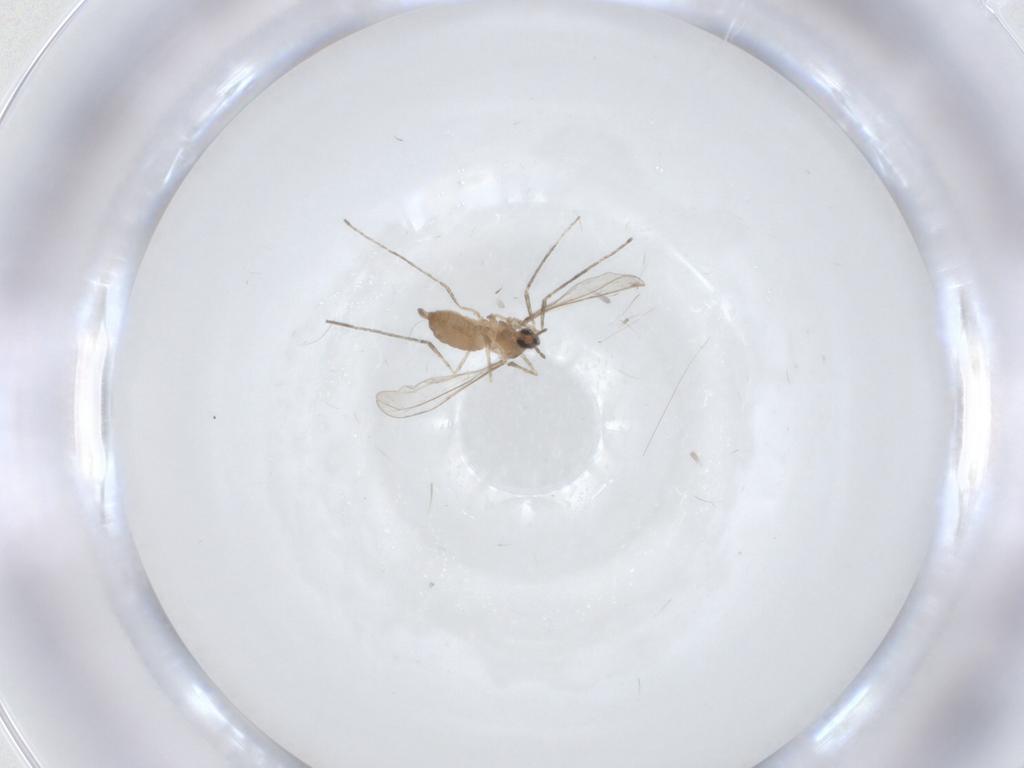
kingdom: Animalia
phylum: Arthropoda
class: Insecta
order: Diptera
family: Cecidomyiidae
